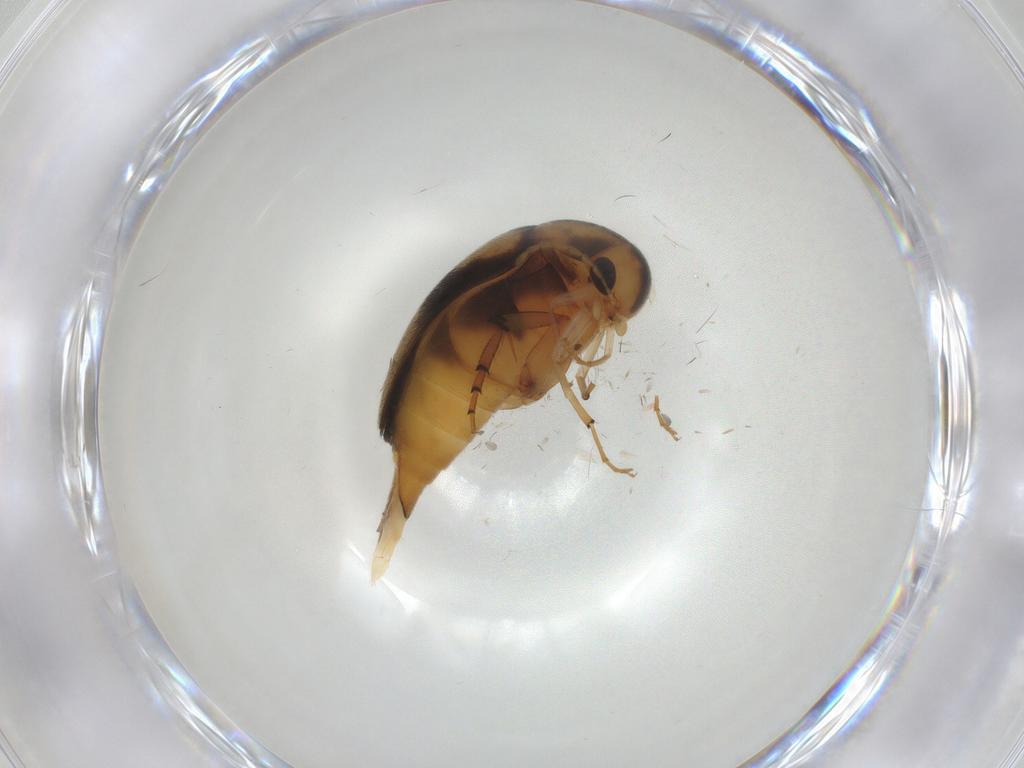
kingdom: Animalia
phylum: Arthropoda
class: Insecta
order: Coleoptera
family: Mordellidae
